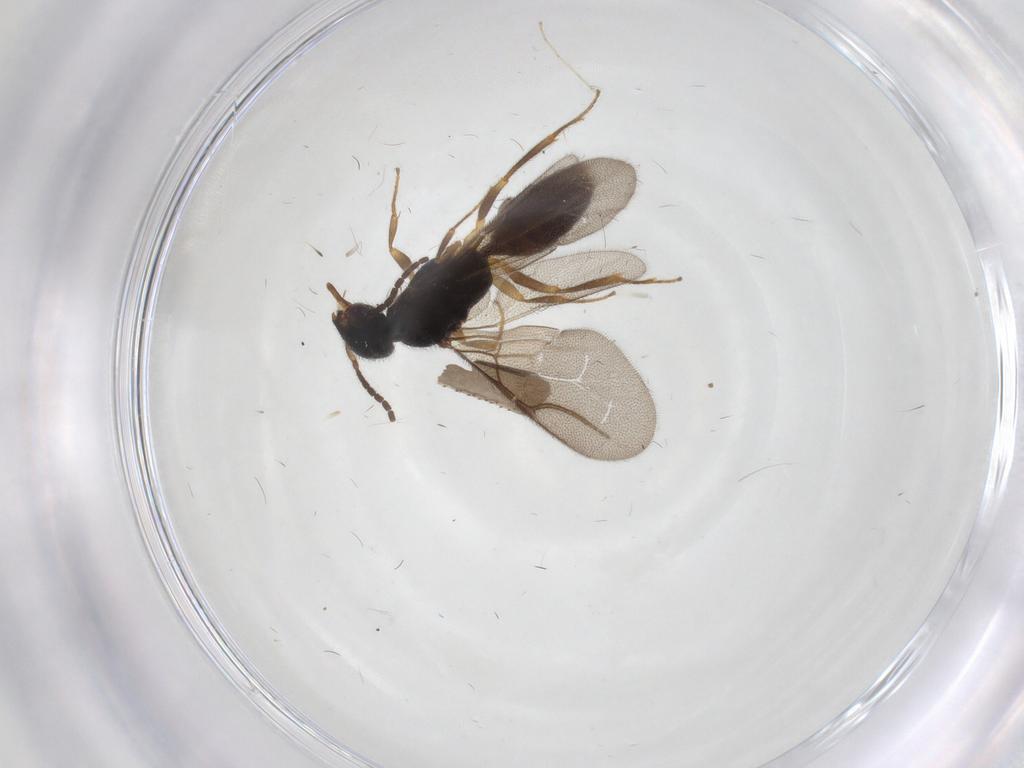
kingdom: Animalia
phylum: Arthropoda
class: Insecta
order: Hymenoptera
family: Bethylidae
